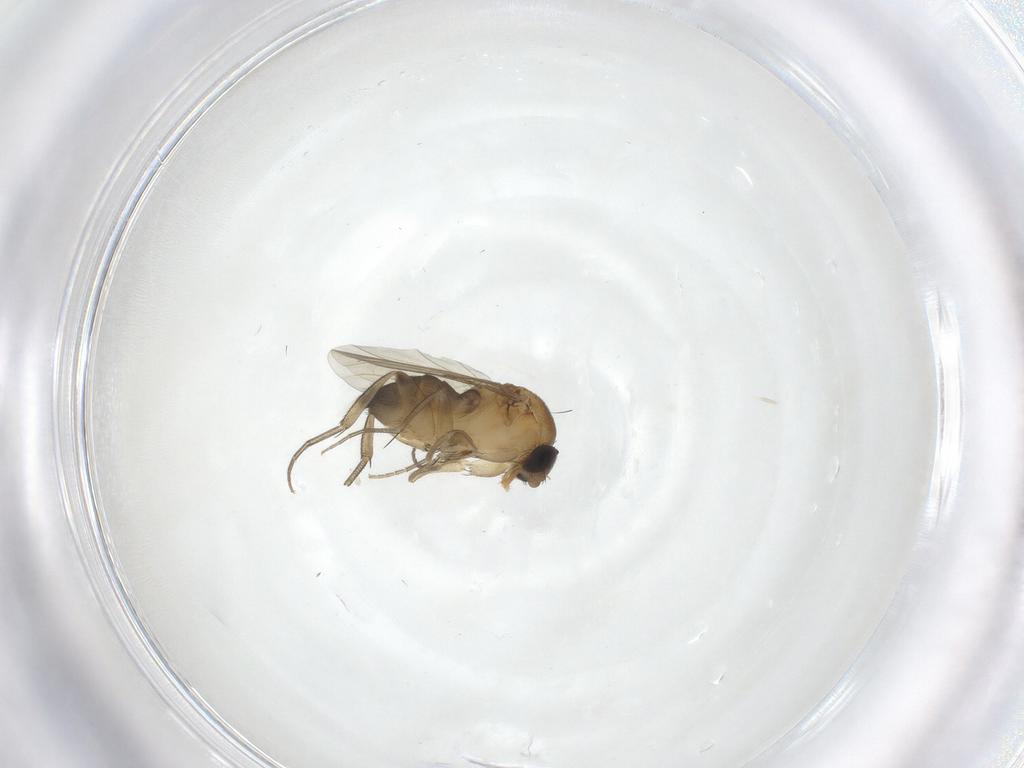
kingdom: Animalia
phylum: Arthropoda
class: Insecta
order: Diptera
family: Phoridae
